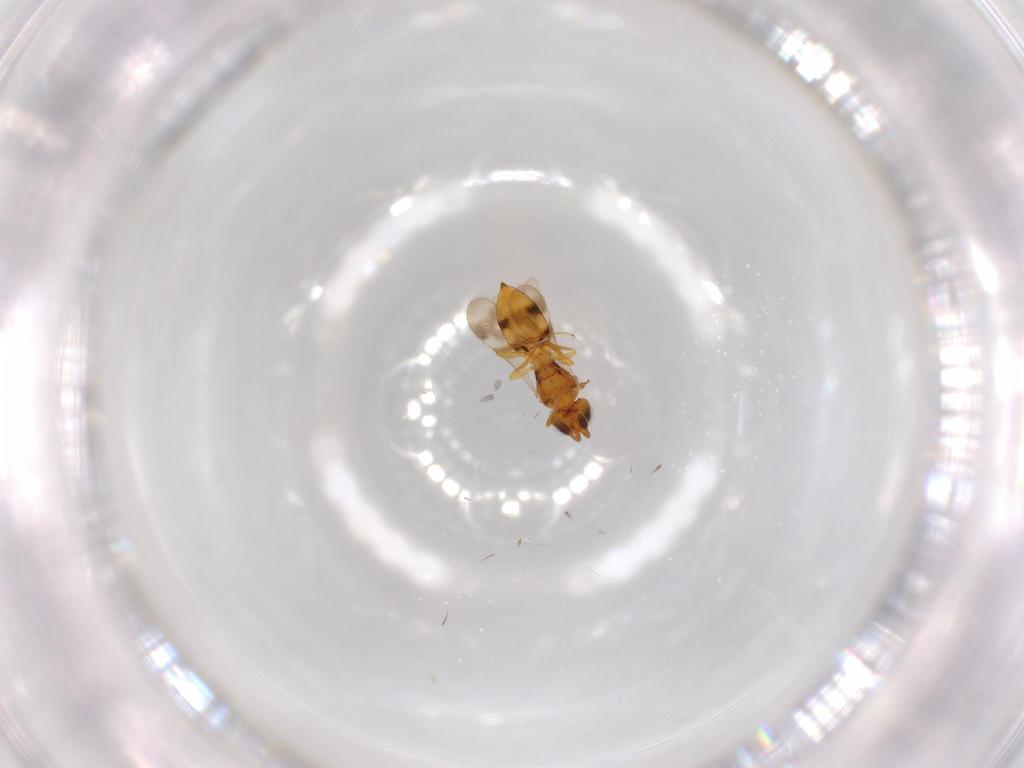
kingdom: Animalia
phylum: Arthropoda
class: Insecta
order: Hymenoptera
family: Scelionidae
